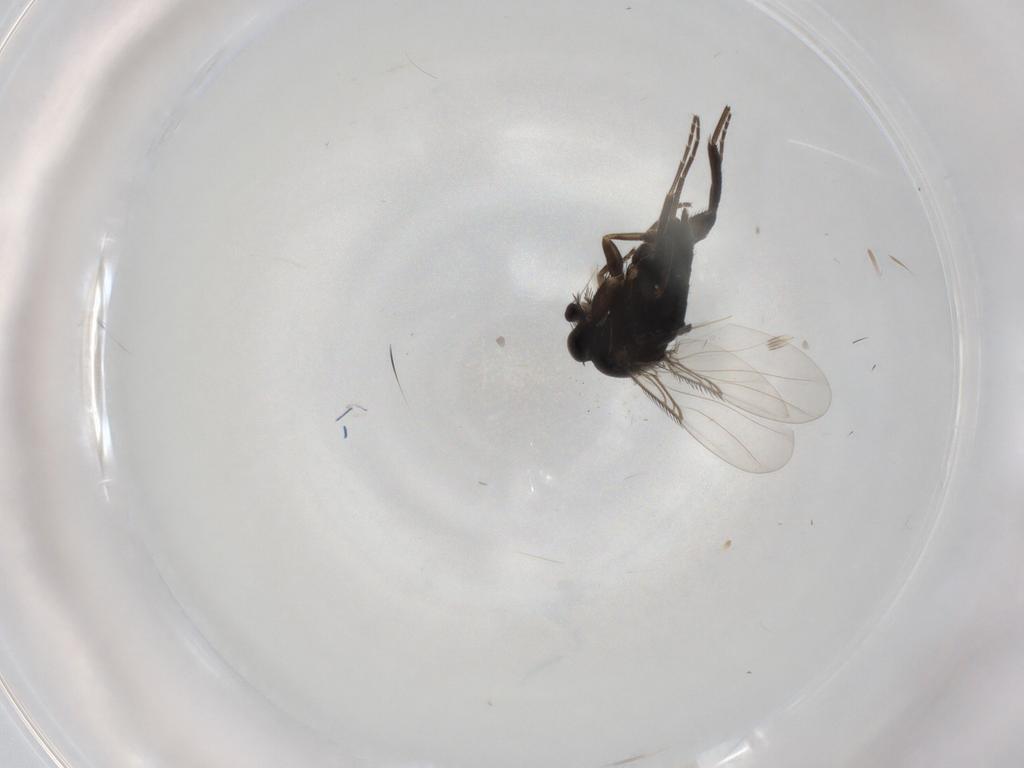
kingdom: Animalia
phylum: Arthropoda
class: Insecta
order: Diptera
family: Phoridae
